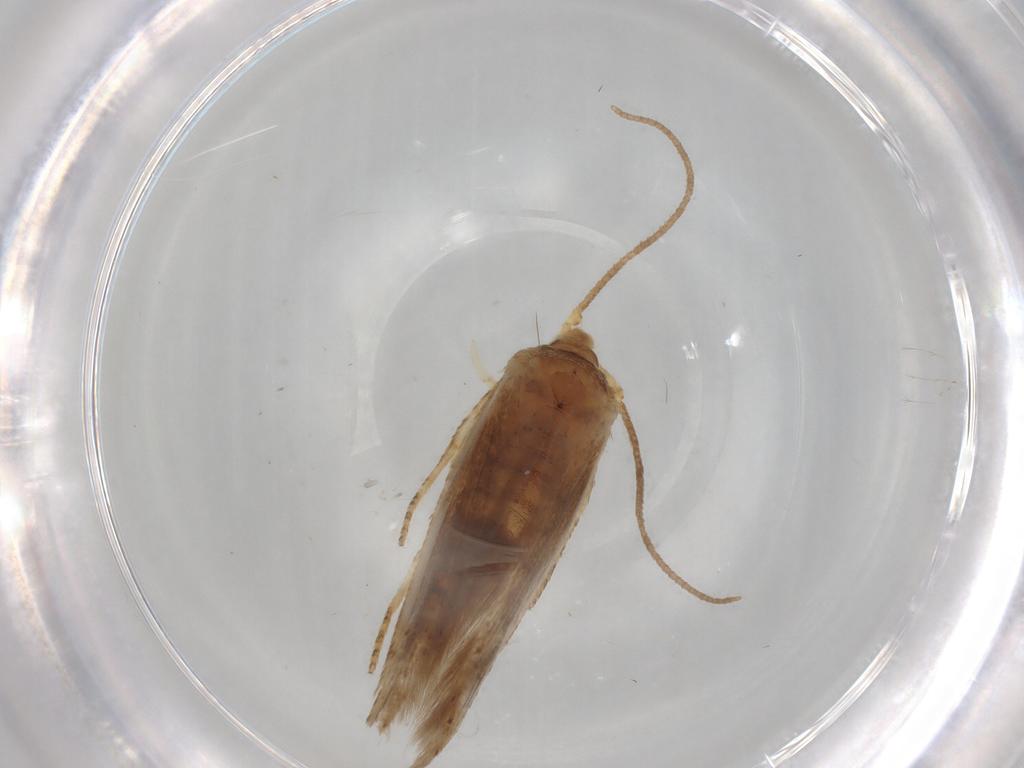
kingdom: Animalia
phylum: Arthropoda
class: Insecta
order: Lepidoptera
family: Blastobasidae
